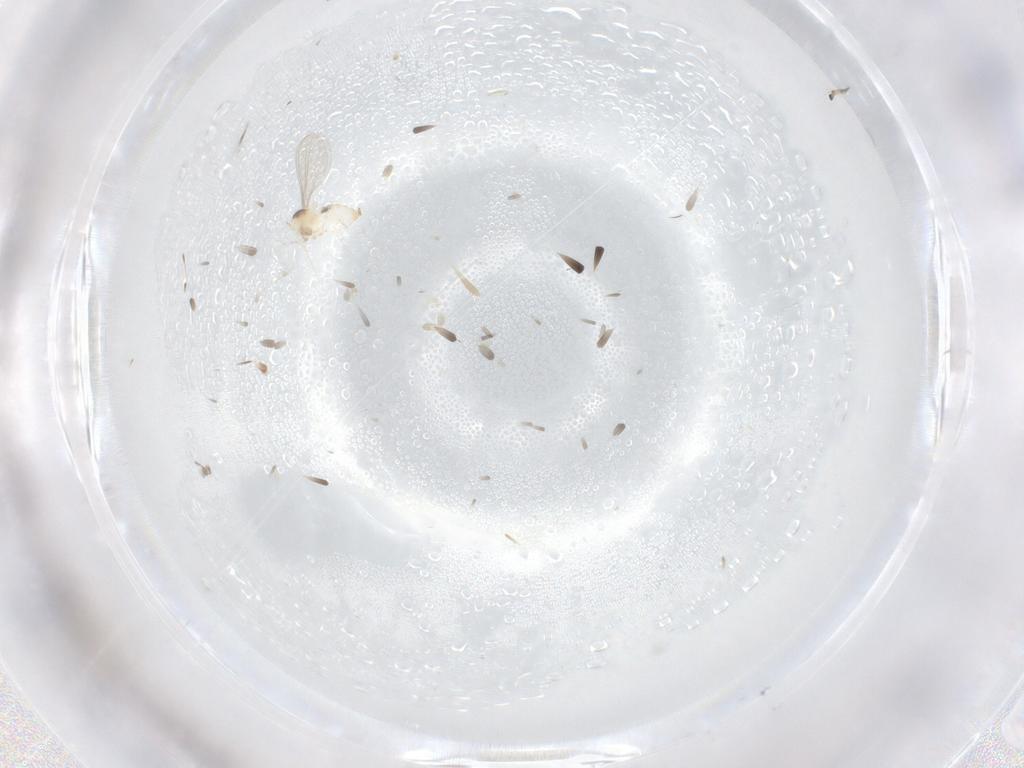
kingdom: Animalia
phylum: Arthropoda
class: Insecta
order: Diptera
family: Cecidomyiidae
